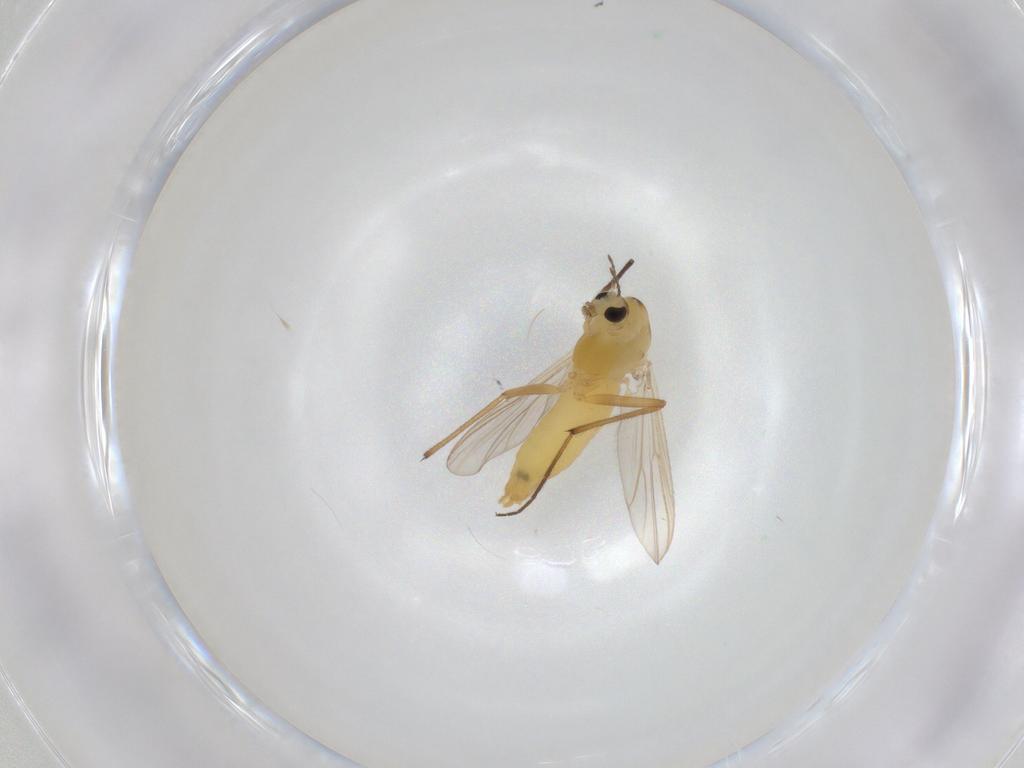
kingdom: Animalia
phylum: Arthropoda
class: Insecta
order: Diptera
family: Chironomidae
